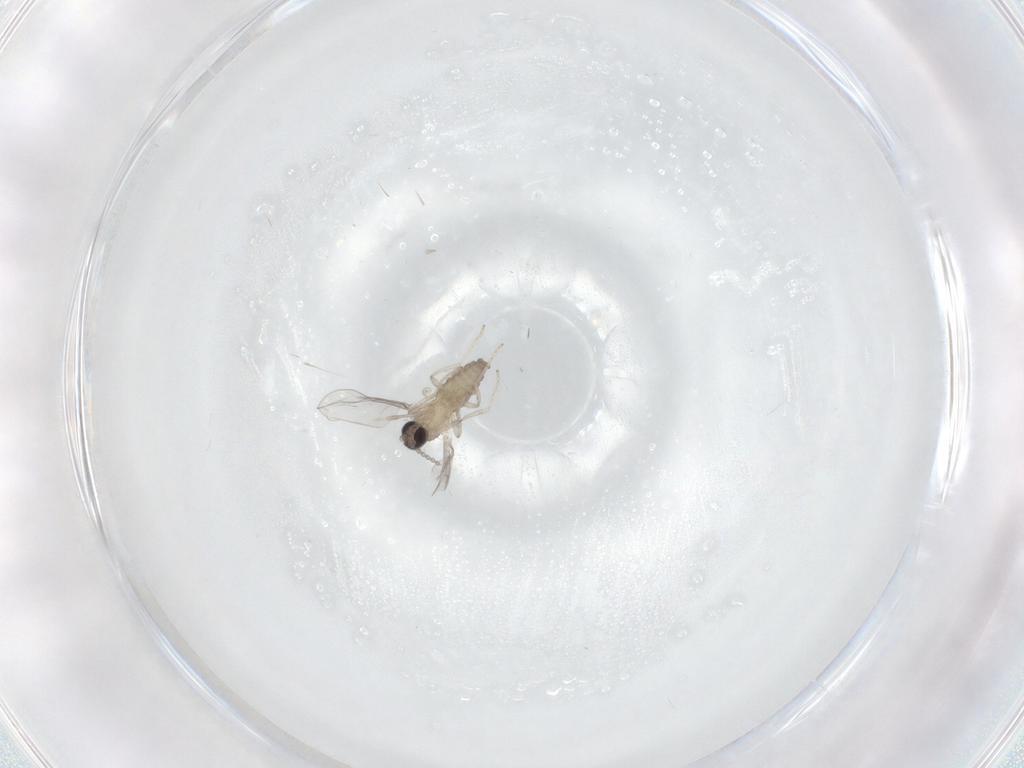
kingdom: Animalia
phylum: Arthropoda
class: Insecta
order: Diptera
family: Cecidomyiidae
